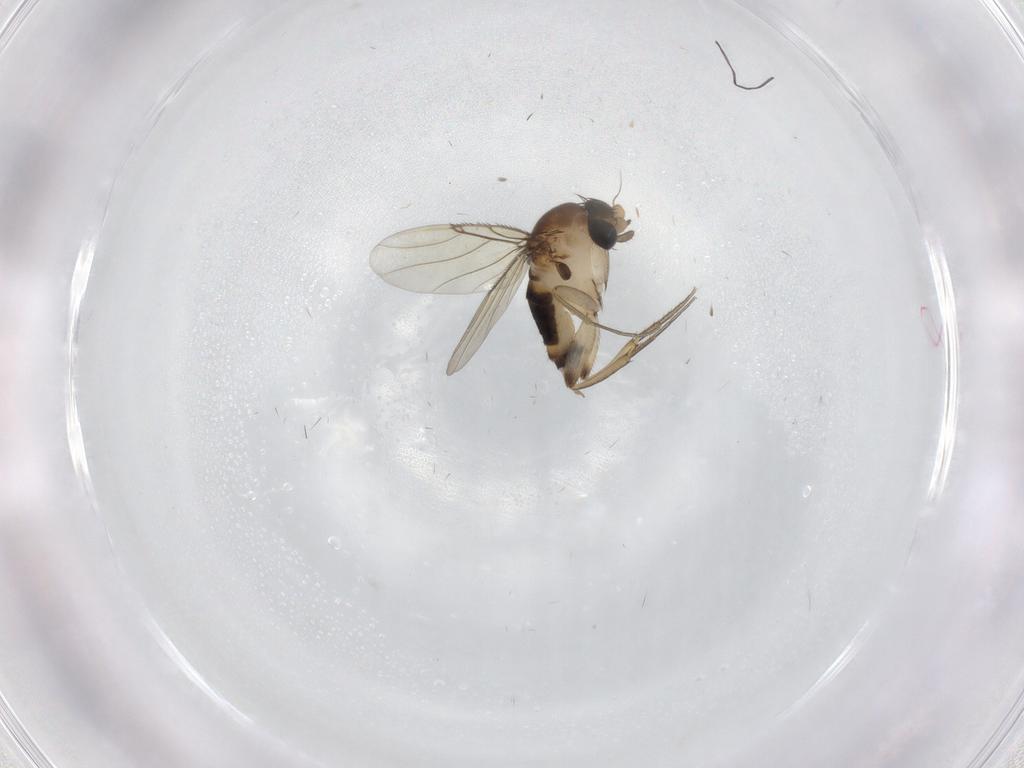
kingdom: Animalia
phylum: Arthropoda
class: Insecta
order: Diptera
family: Phoridae
